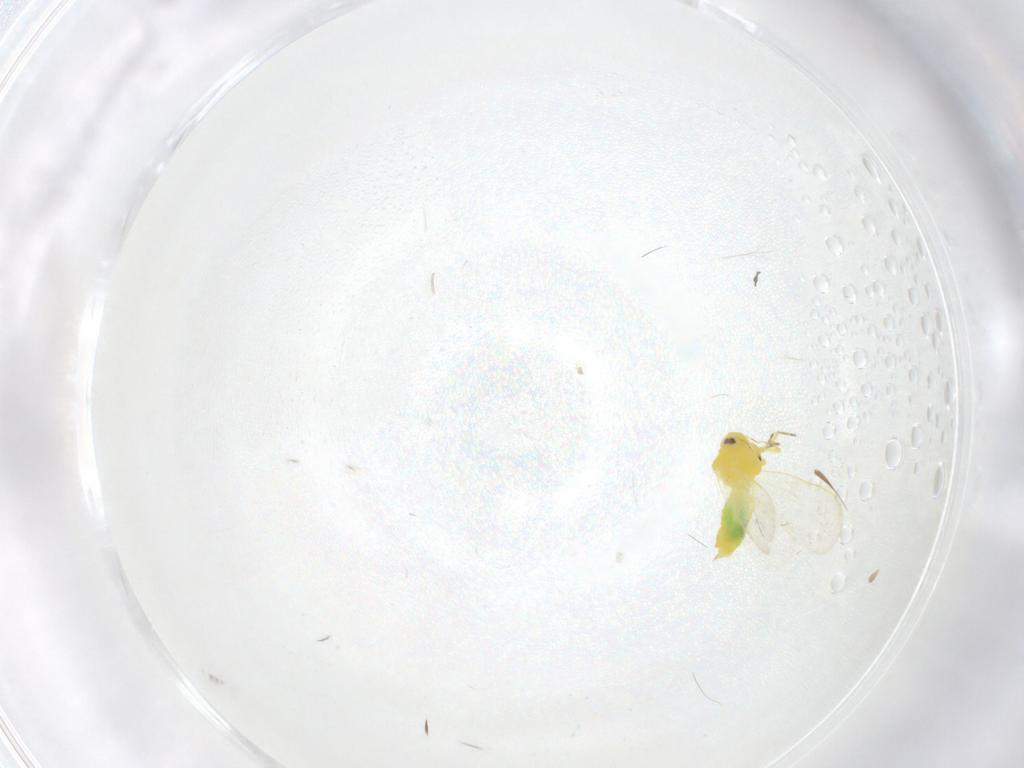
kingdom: Animalia
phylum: Arthropoda
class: Insecta
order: Hemiptera
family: Aleyrodidae
